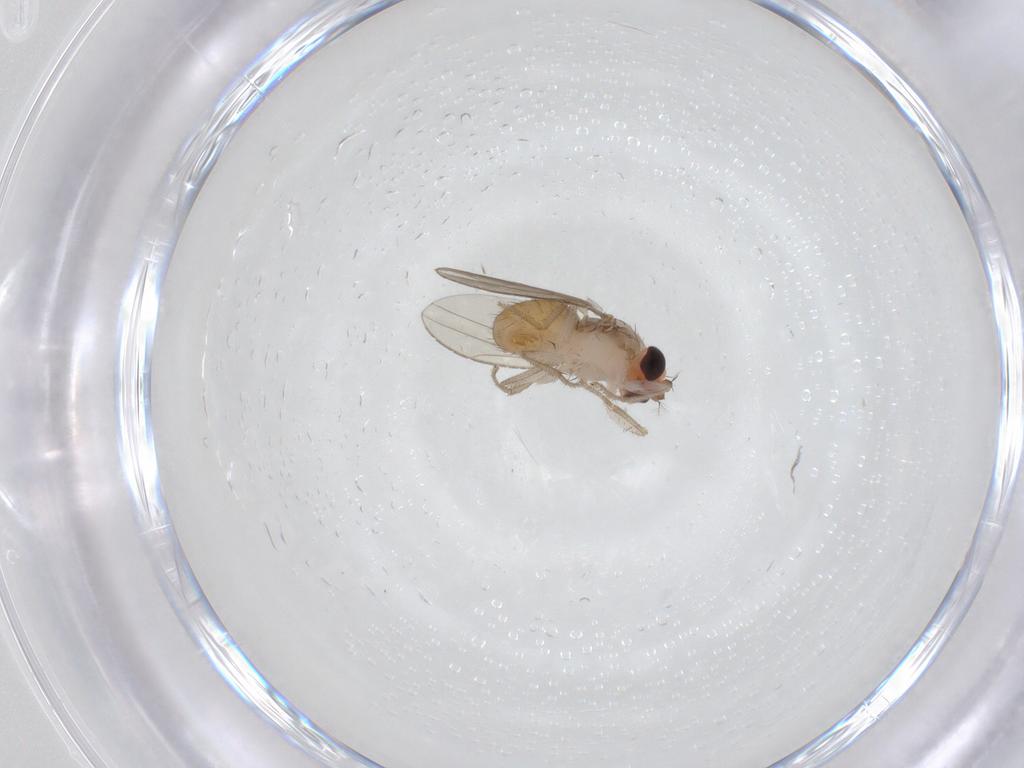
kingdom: Animalia
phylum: Arthropoda
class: Insecta
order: Diptera
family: Drosophilidae
